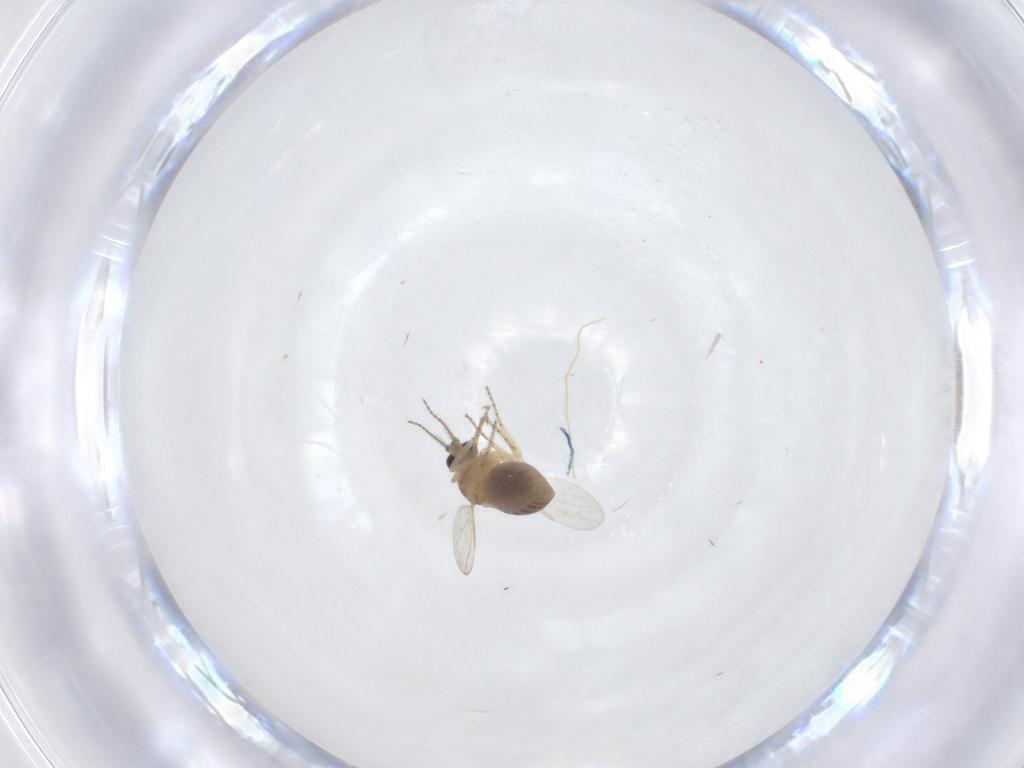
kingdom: Animalia
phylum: Arthropoda
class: Insecta
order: Diptera
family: Ceratopogonidae
